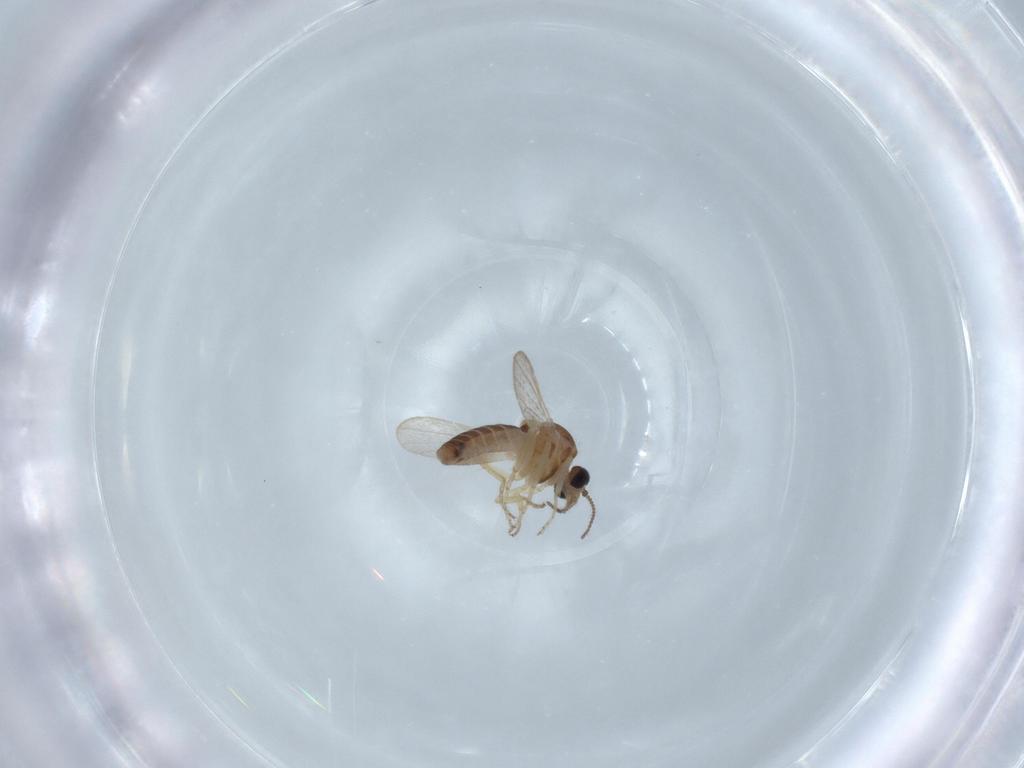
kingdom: Animalia
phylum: Arthropoda
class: Insecta
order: Diptera
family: Ceratopogonidae
